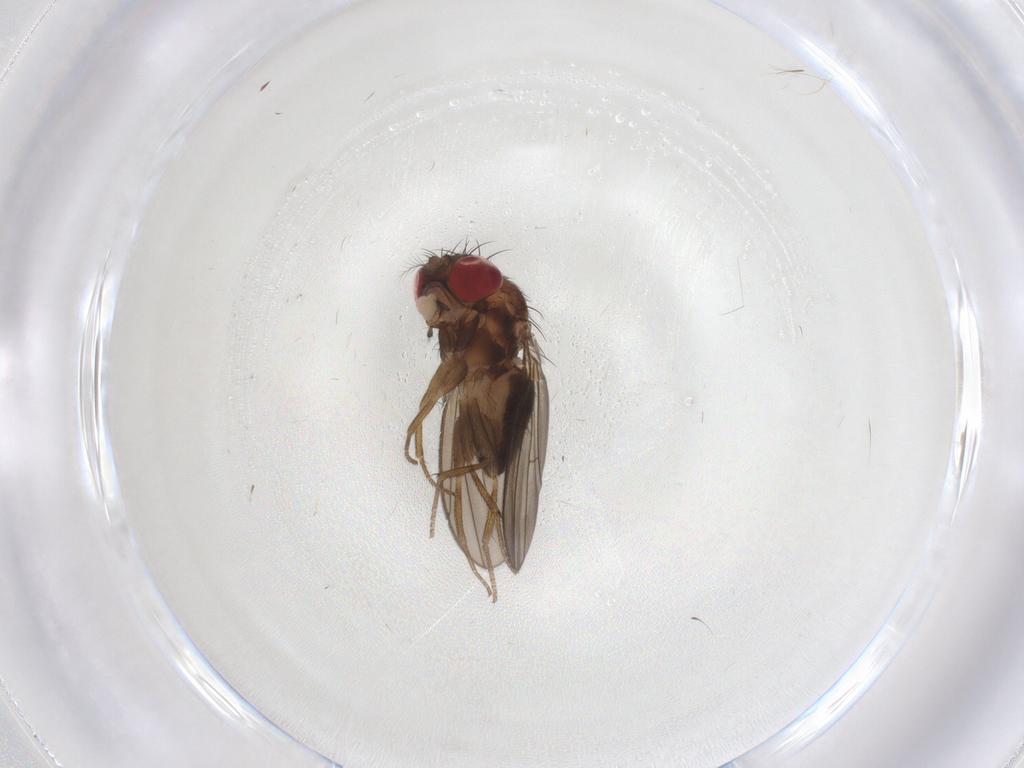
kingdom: Animalia
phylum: Arthropoda
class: Insecta
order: Diptera
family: Drosophilidae
